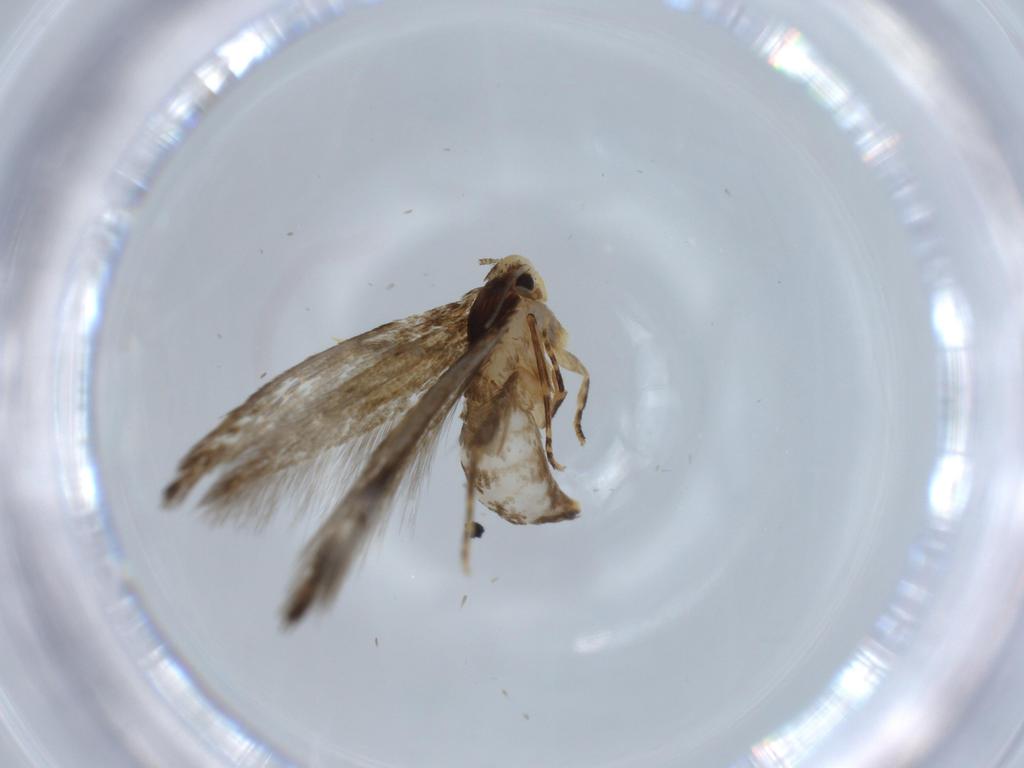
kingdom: Animalia
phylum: Arthropoda
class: Insecta
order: Lepidoptera
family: Tineidae
